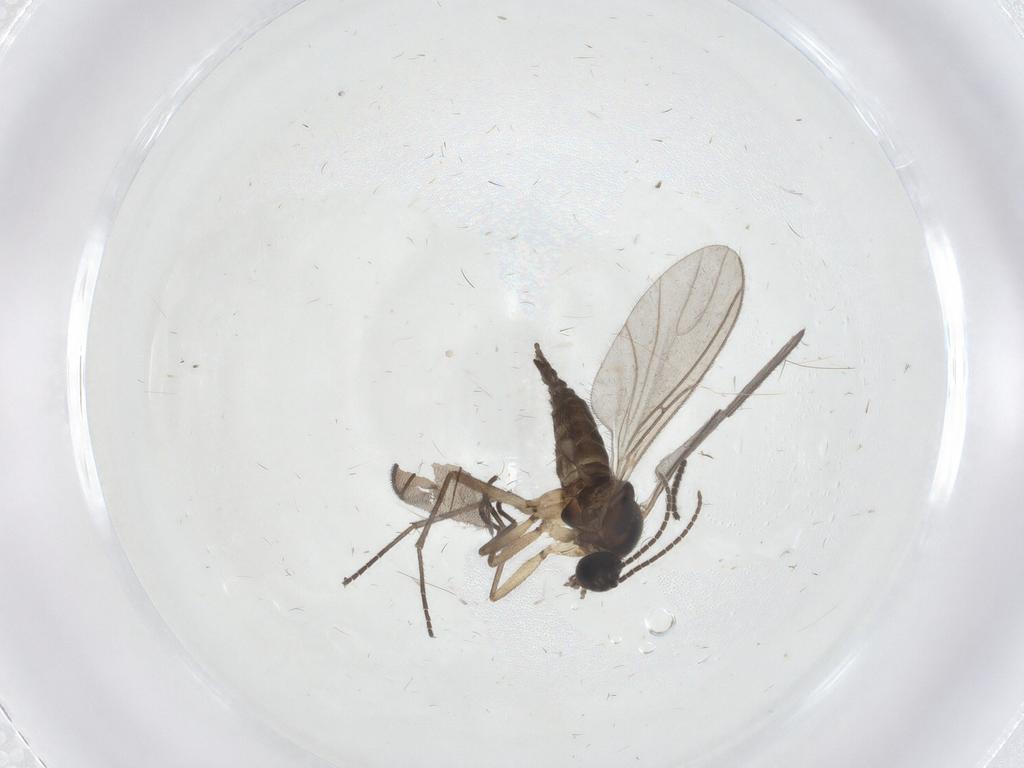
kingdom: Animalia
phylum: Arthropoda
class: Insecta
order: Diptera
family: Sciaridae
